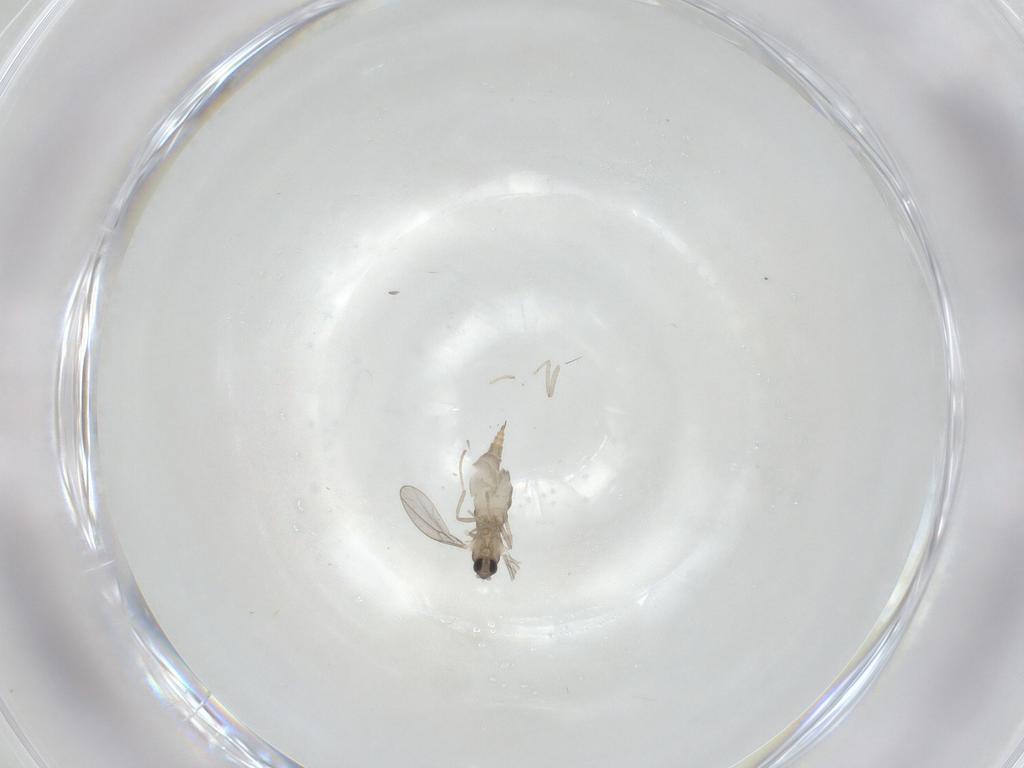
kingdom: Animalia
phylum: Arthropoda
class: Insecta
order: Diptera
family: Cecidomyiidae
